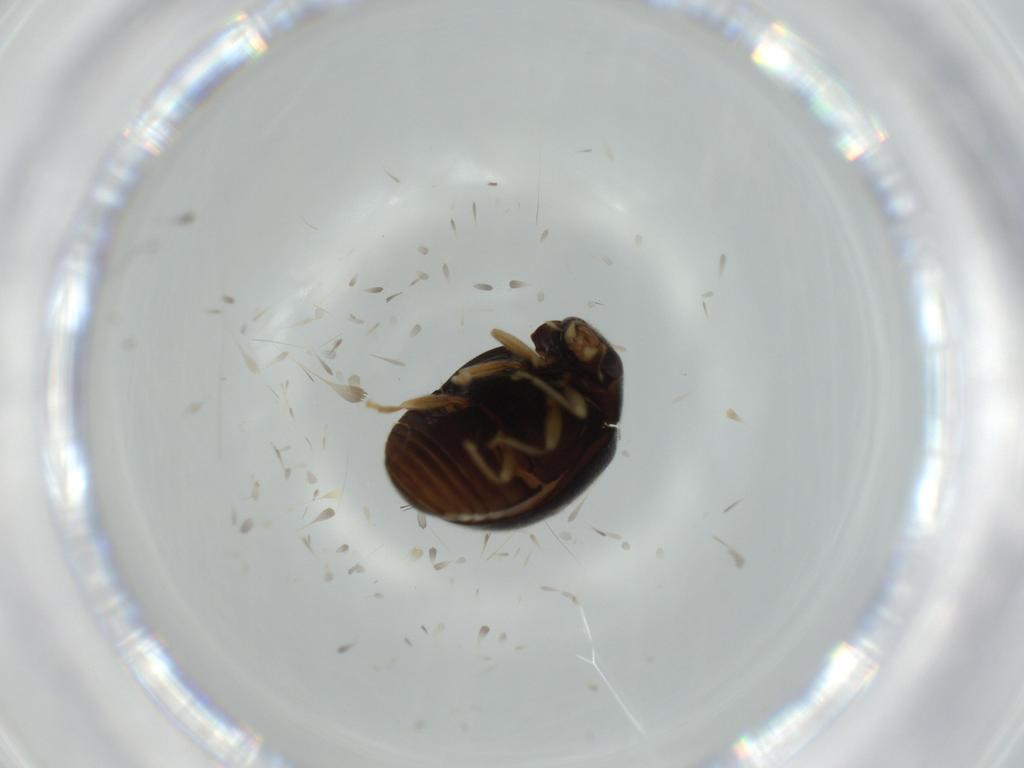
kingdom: Animalia
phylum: Arthropoda
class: Insecta
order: Coleoptera
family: Coccinellidae
